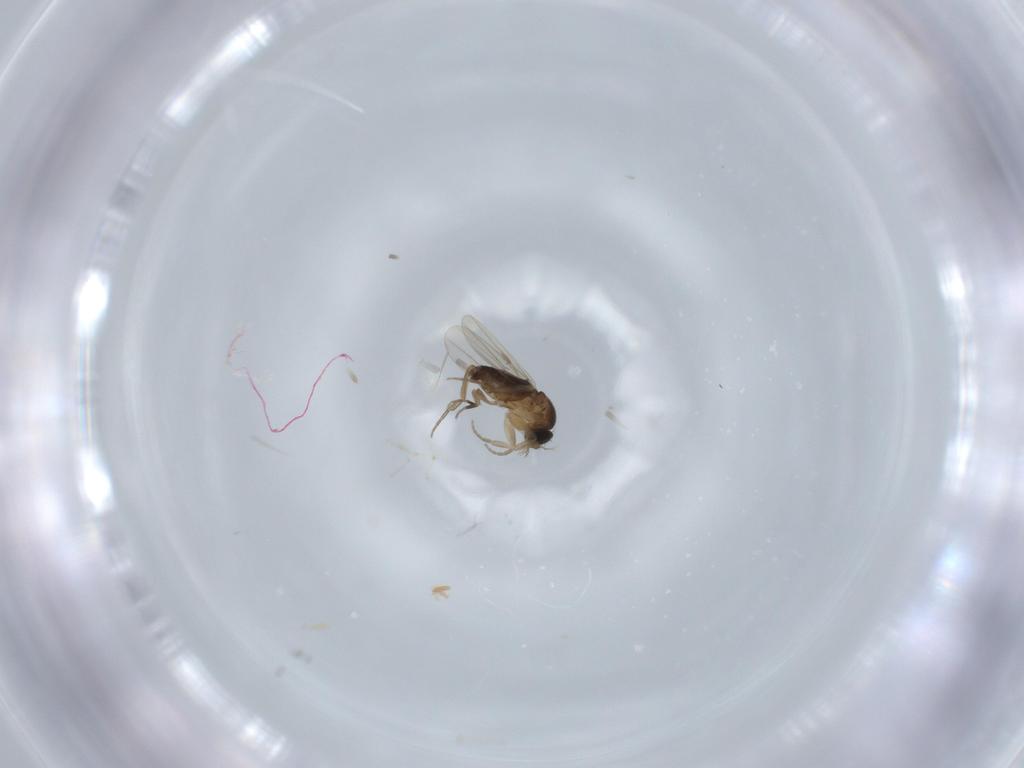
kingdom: Animalia
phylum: Arthropoda
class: Insecta
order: Diptera
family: Phoridae
